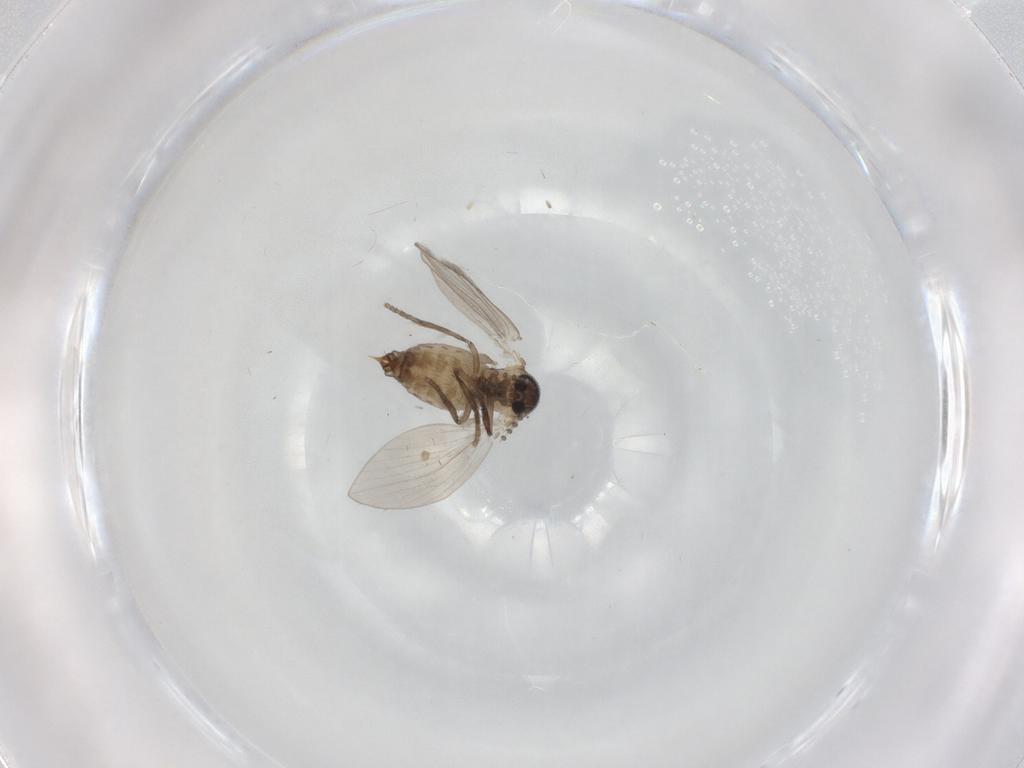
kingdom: Animalia
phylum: Arthropoda
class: Insecta
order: Diptera
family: Psychodidae
